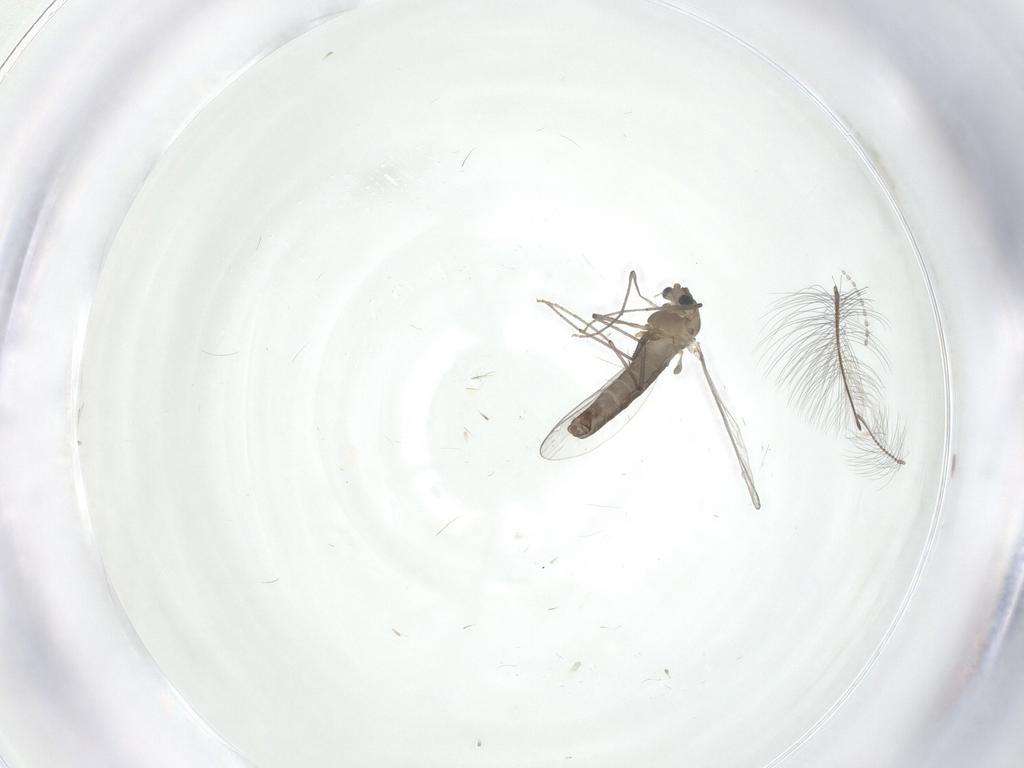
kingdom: Animalia
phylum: Arthropoda
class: Insecta
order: Diptera
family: Chironomidae
